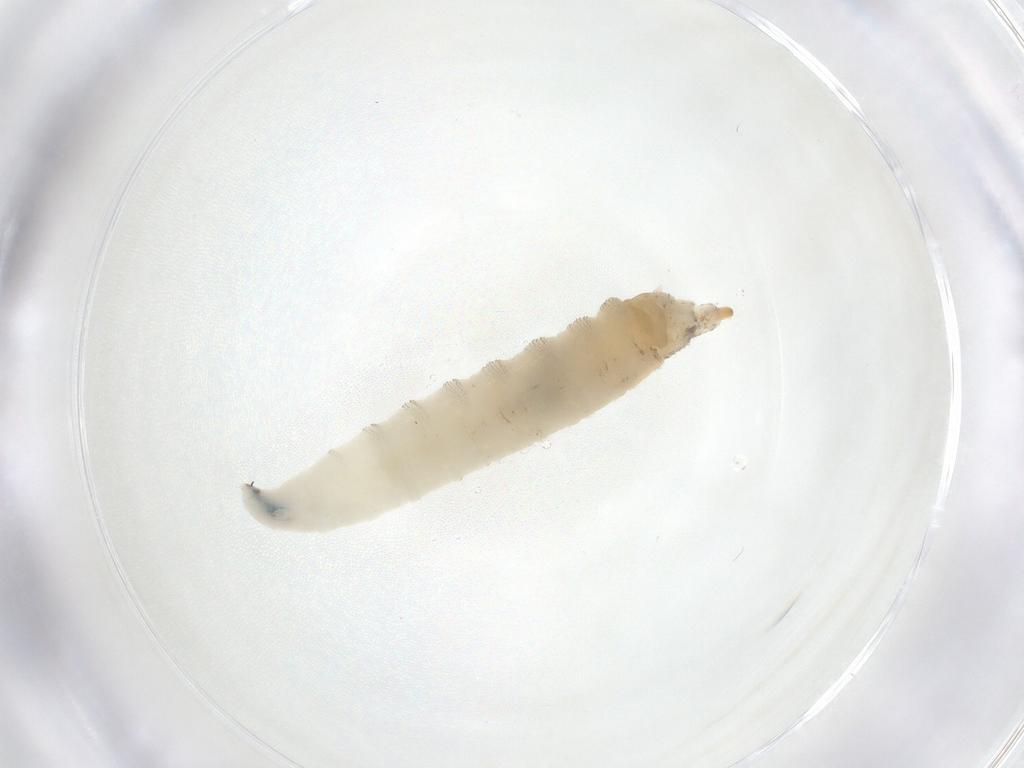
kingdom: Animalia
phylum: Arthropoda
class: Insecta
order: Diptera
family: Drosophilidae
